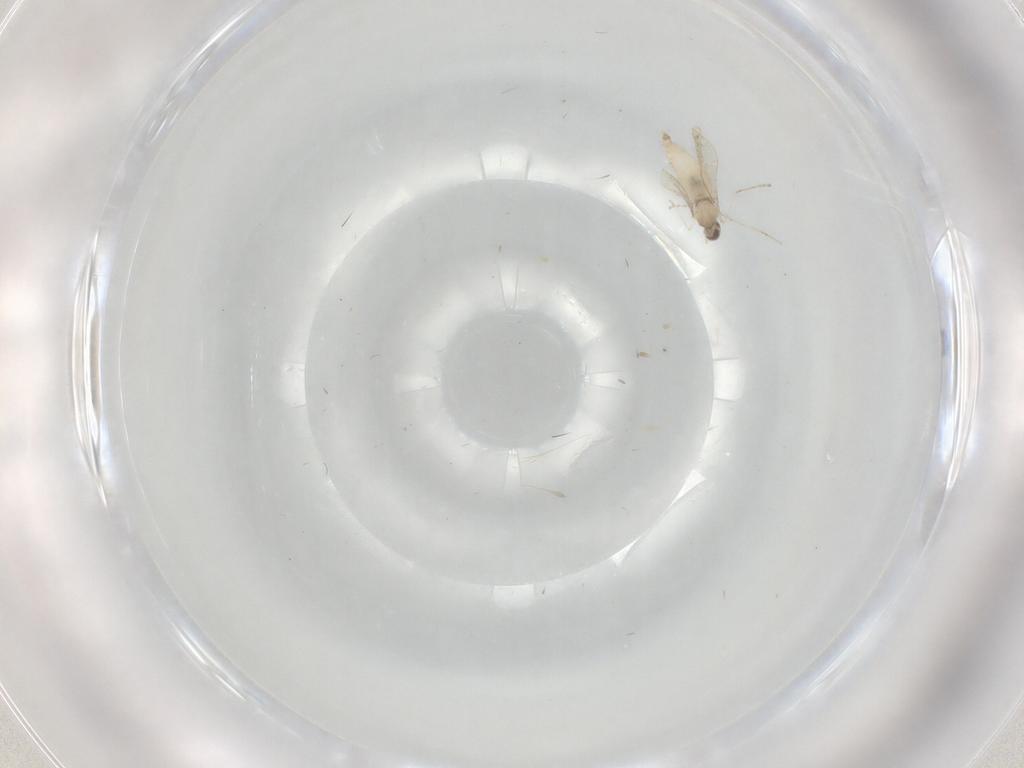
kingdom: Animalia
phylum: Arthropoda
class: Insecta
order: Diptera
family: Cecidomyiidae
